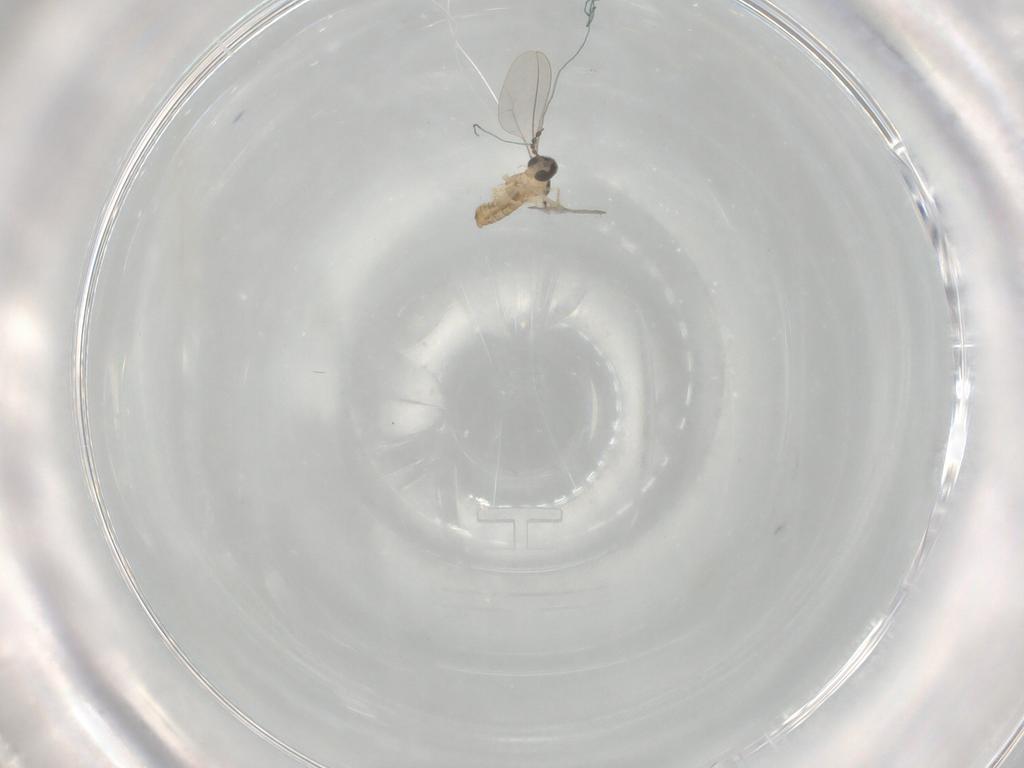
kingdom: Animalia
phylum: Arthropoda
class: Insecta
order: Diptera
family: Cecidomyiidae
